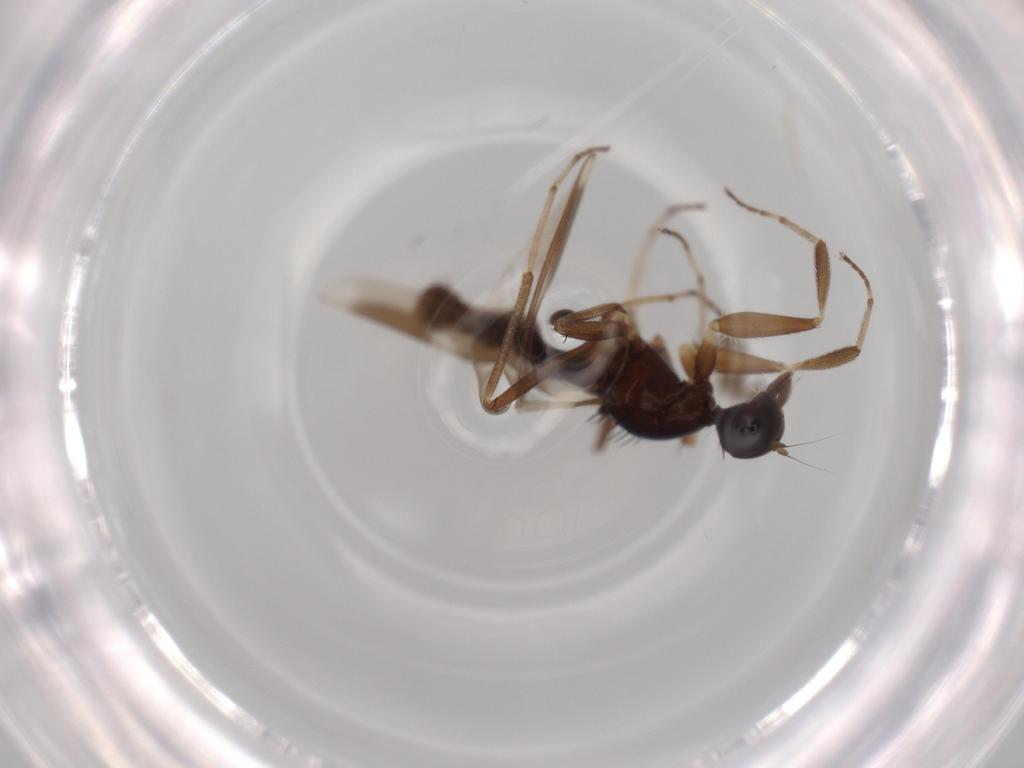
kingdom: Animalia
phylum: Arthropoda
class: Insecta
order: Diptera
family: Hybotidae
